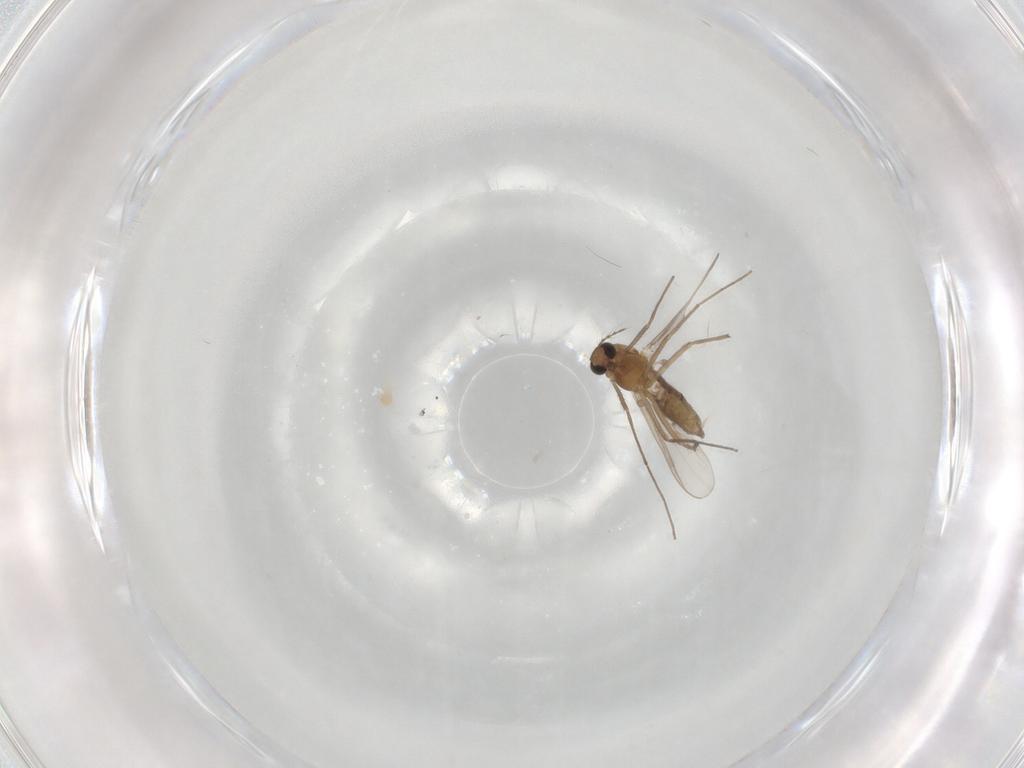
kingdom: Animalia
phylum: Arthropoda
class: Insecta
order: Diptera
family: Chironomidae
